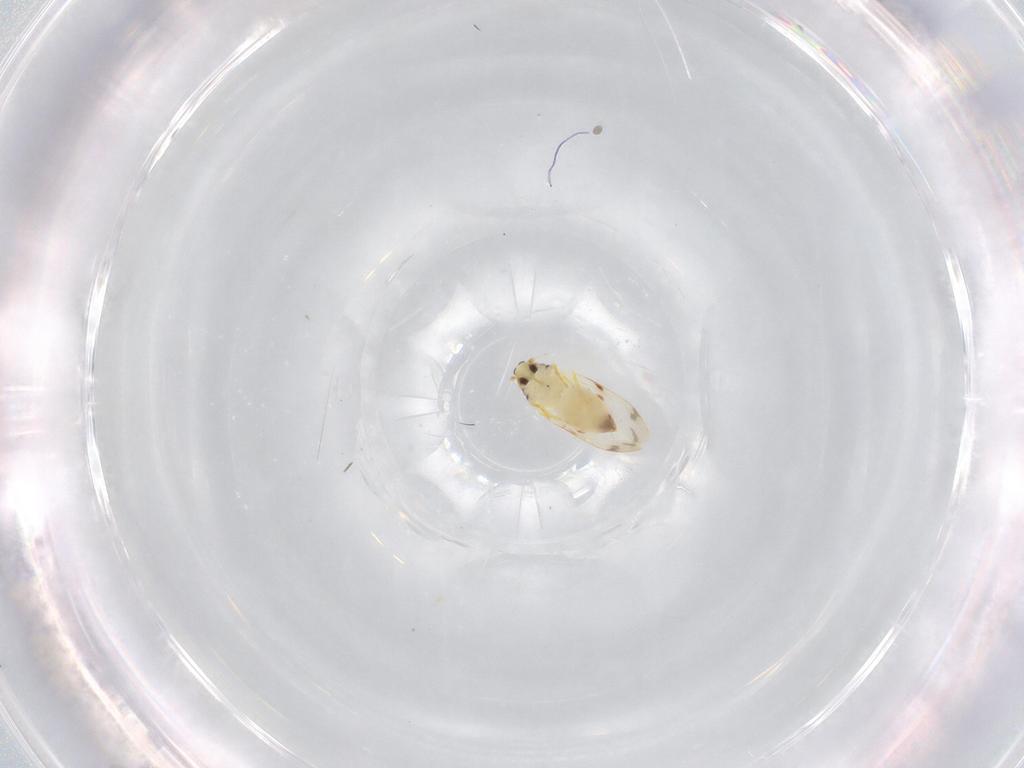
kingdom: Animalia
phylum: Arthropoda
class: Insecta
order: Hemiptera
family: Aleyrodidae
